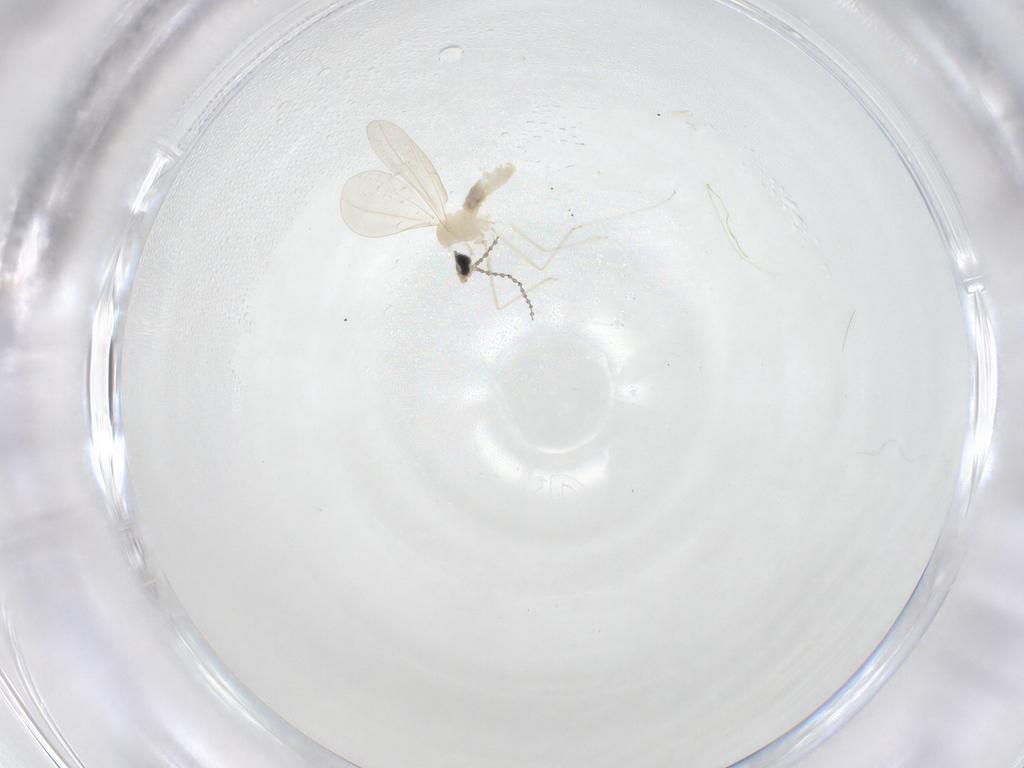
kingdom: Animalia
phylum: Arthropoda
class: Insecta
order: Diptera
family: Cecidomyiidae
